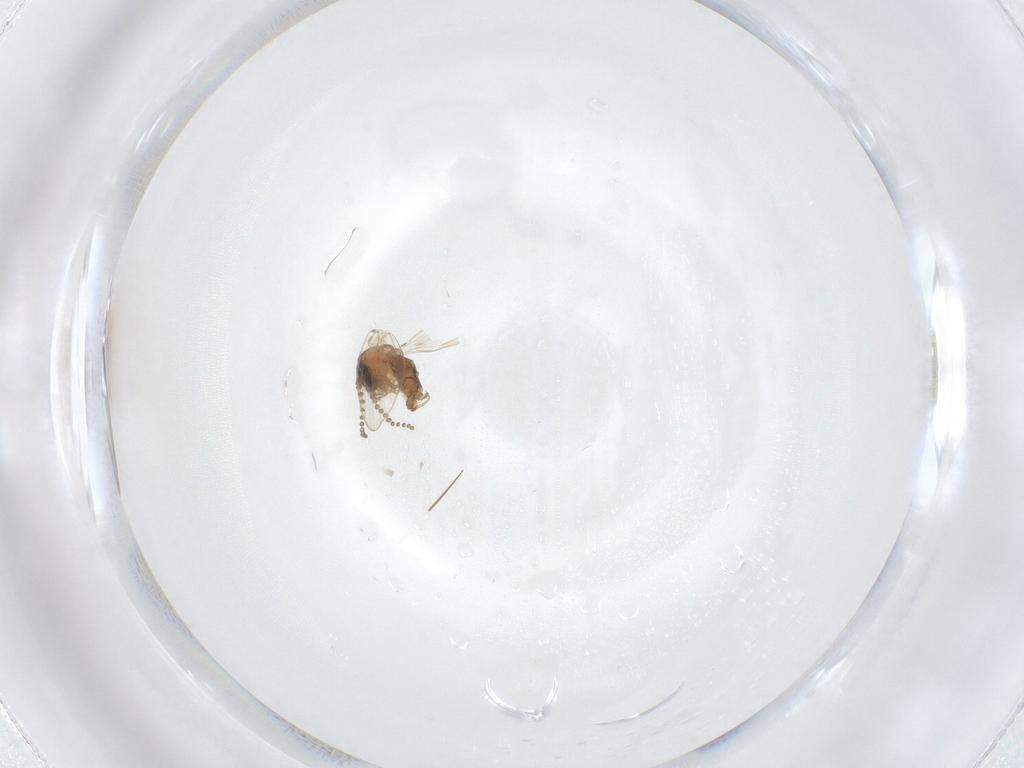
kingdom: Animalia
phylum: Arthropoda
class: Insecta
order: Diptera
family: Psychodidae
